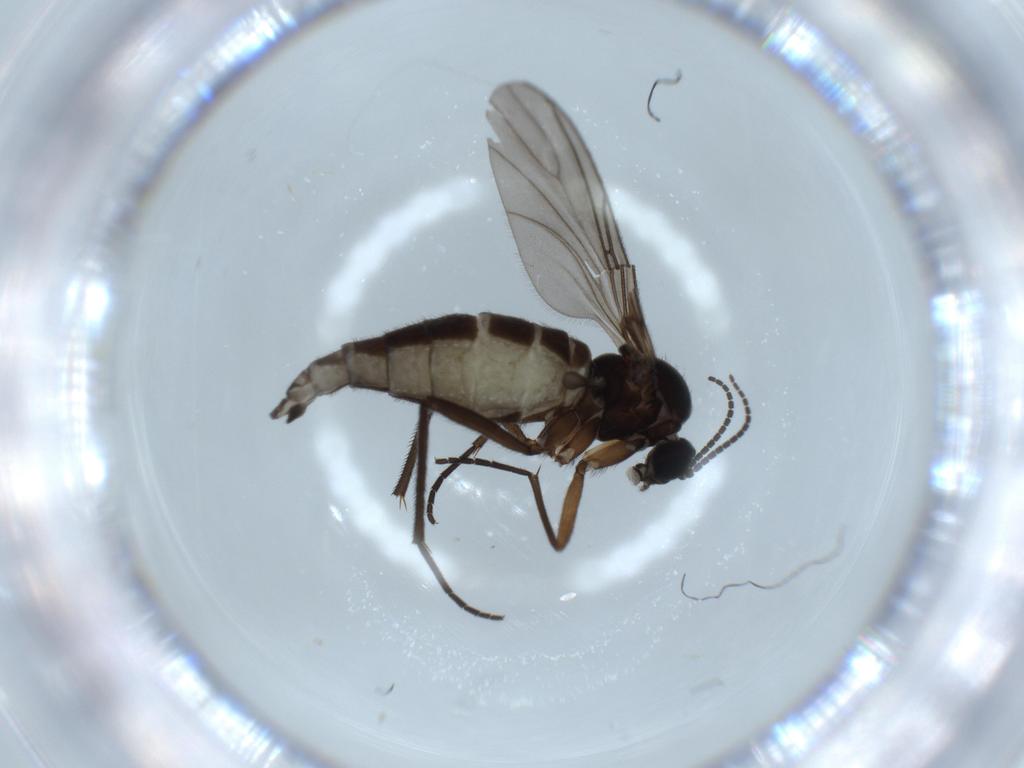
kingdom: Animalia
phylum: Arthropoda
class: Insecta
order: Diptera
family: Sciaridae
